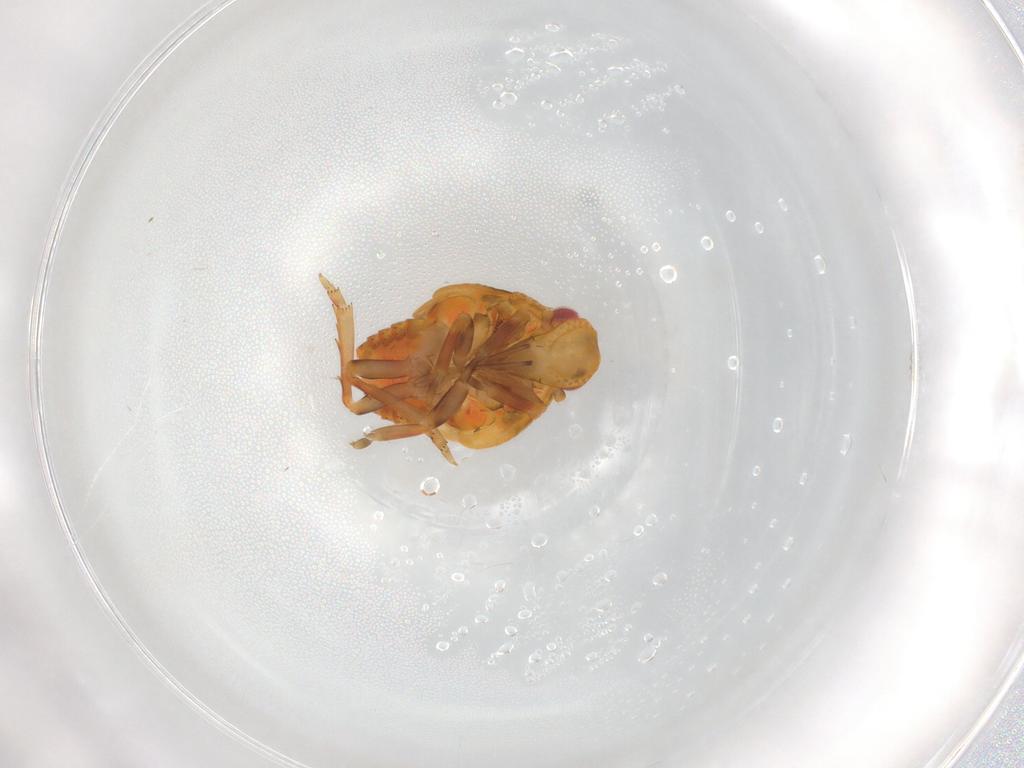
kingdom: Animalia
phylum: Arthropoda
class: Insecta
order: Hemiptera
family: Flatidae
